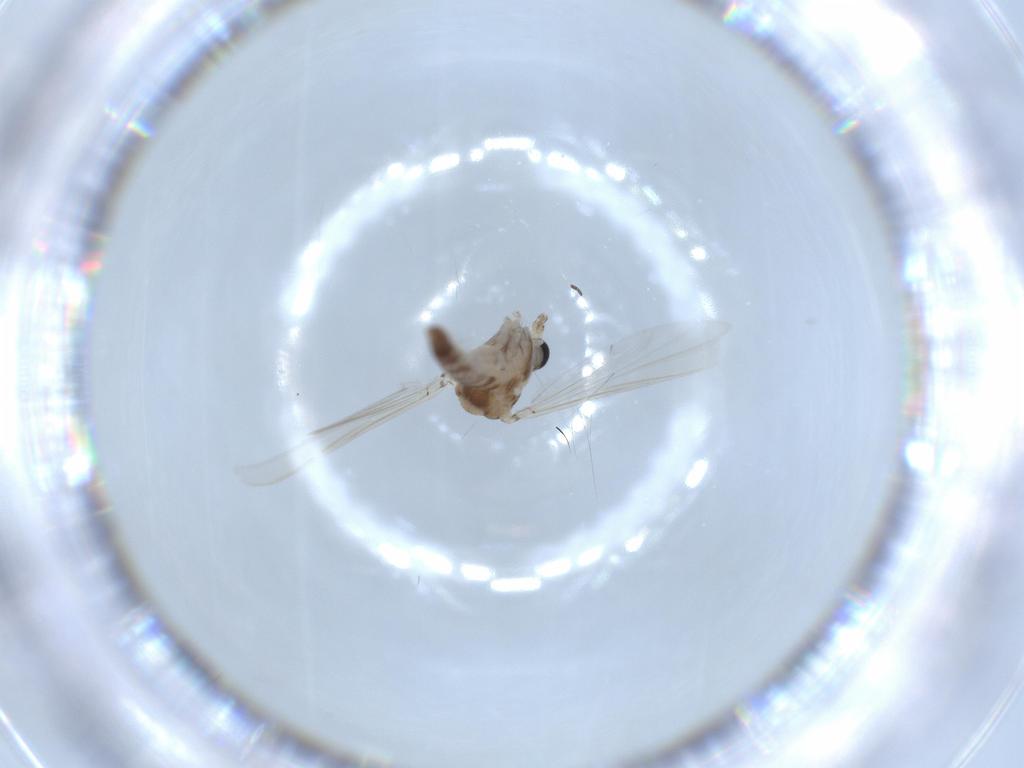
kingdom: Animalia
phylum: Arthropoda
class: Insecta
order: Diptera
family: Chironomidae
